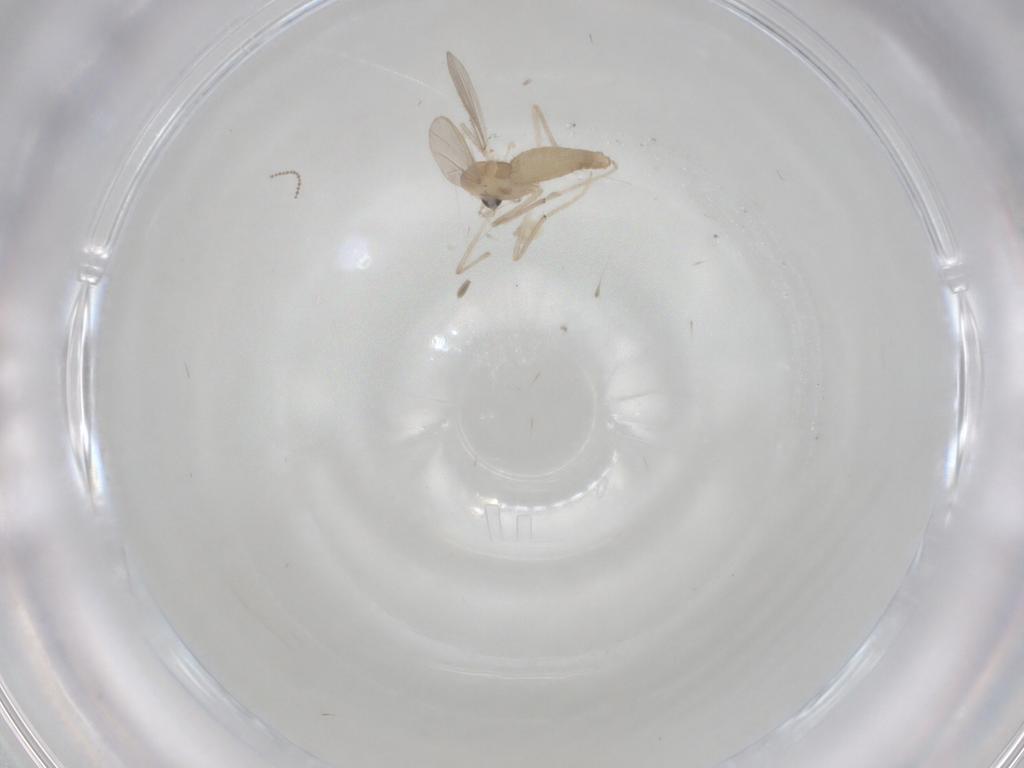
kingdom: Animalia
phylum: Arthropoda
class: Insecta
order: Diptera
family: Chironomidae
